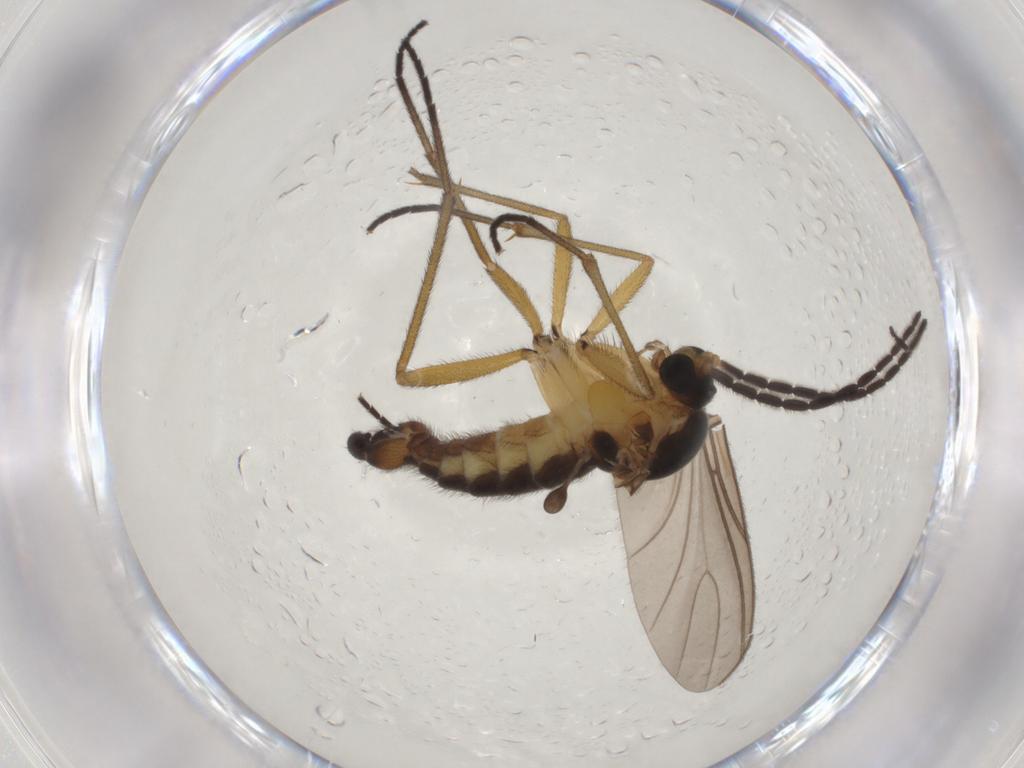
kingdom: Animalia
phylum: Arthropoda
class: Insecta
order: Diptera
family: Sciaridae
